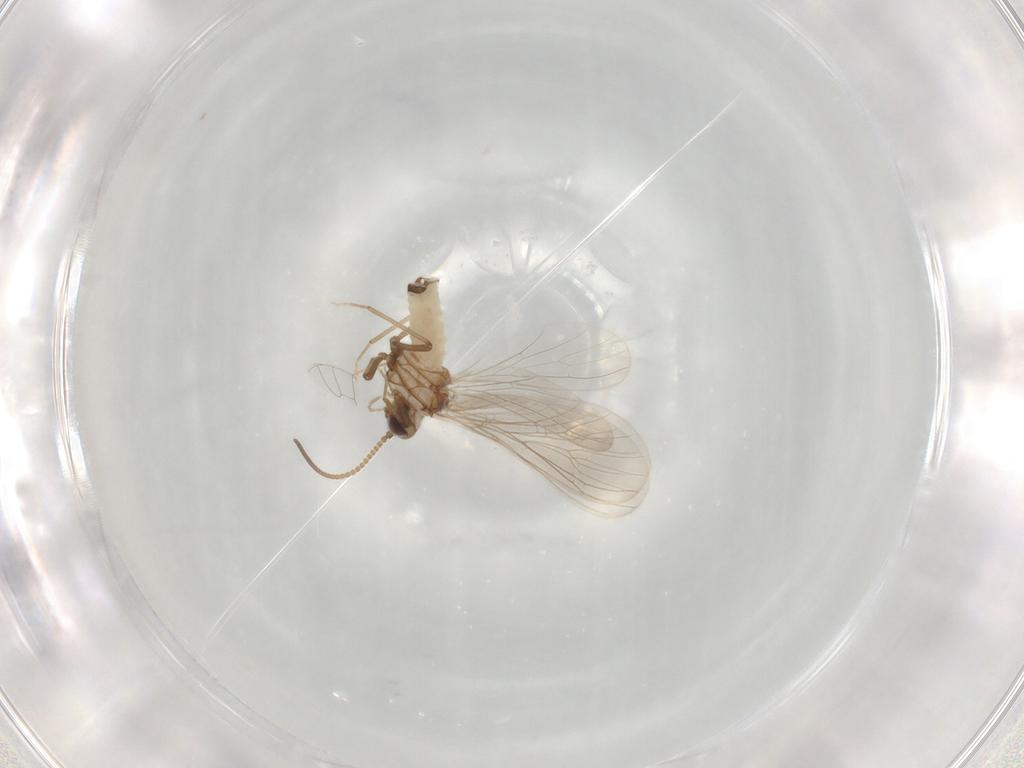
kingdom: Animalia
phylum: Arthropoda
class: Insecta
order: Neuroptera
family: Coniopterygidae
